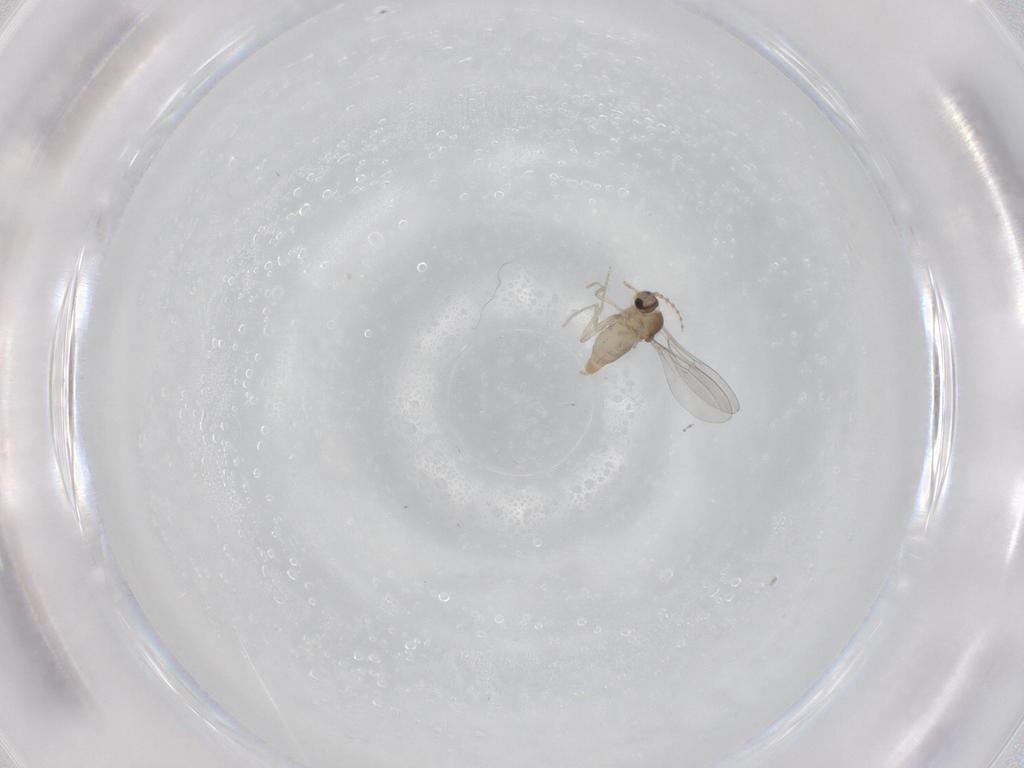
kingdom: Animalia
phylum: Arthropoda
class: Insecta
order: Diptera
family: Cecidomyiidae
